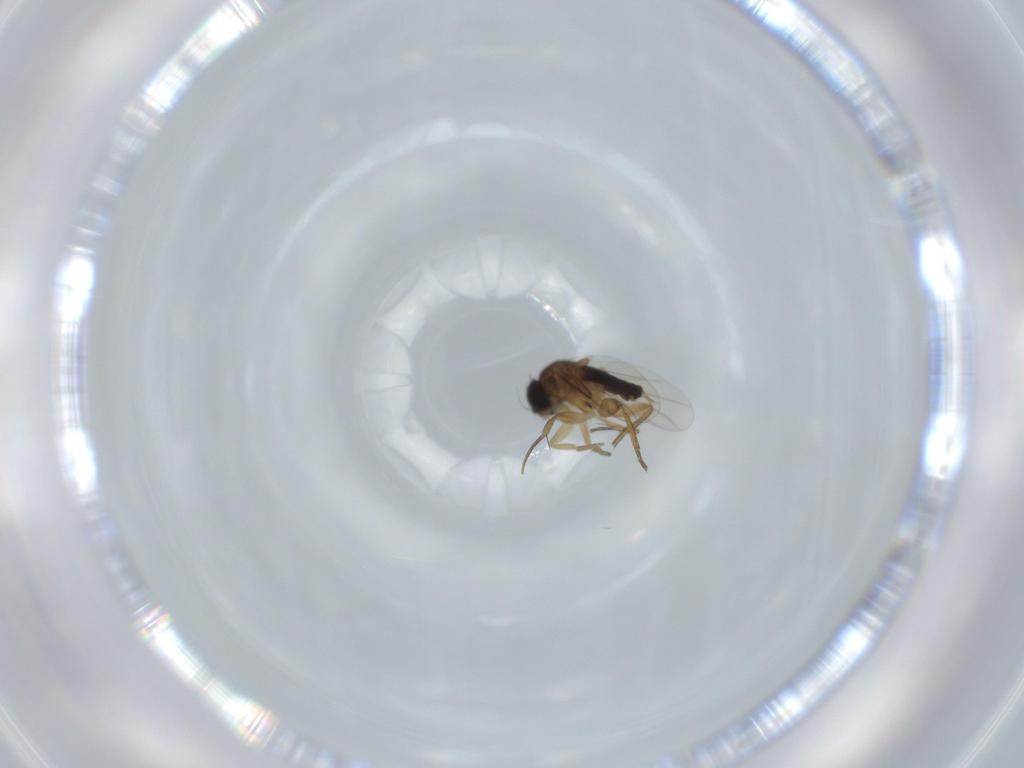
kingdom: Animalia
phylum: Arthropoda
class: Insecta
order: Diptera
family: Phoridae
